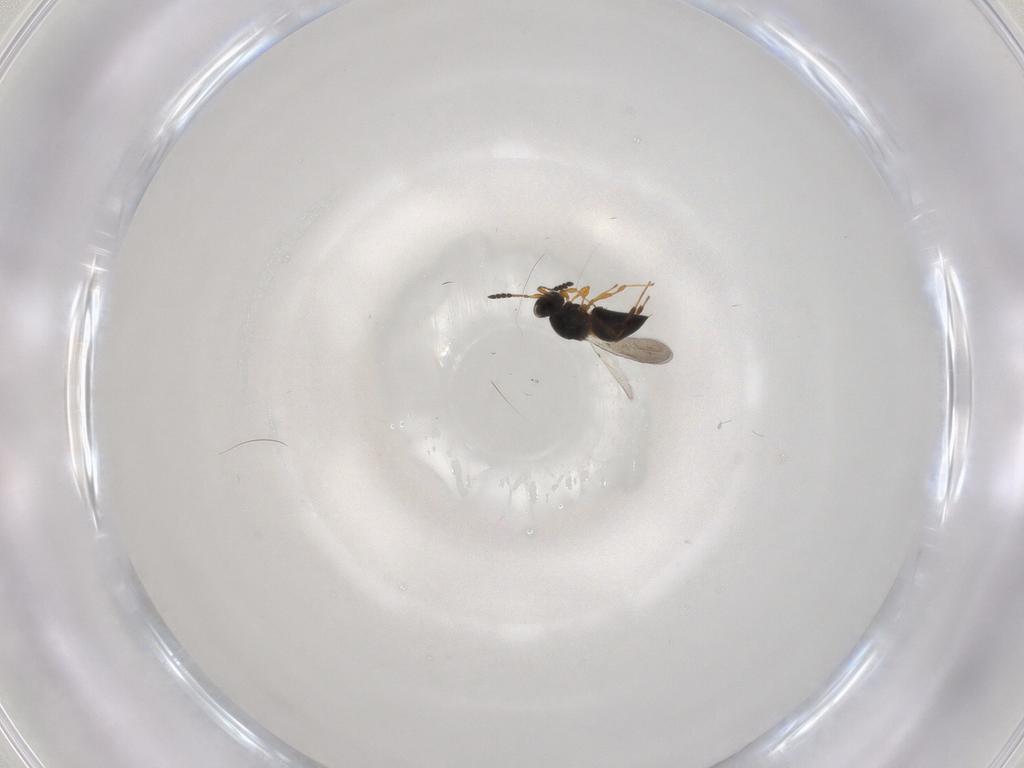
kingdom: Animalia
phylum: Arthropoda
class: Insecta
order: Hymenoptera
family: Platygastridae
